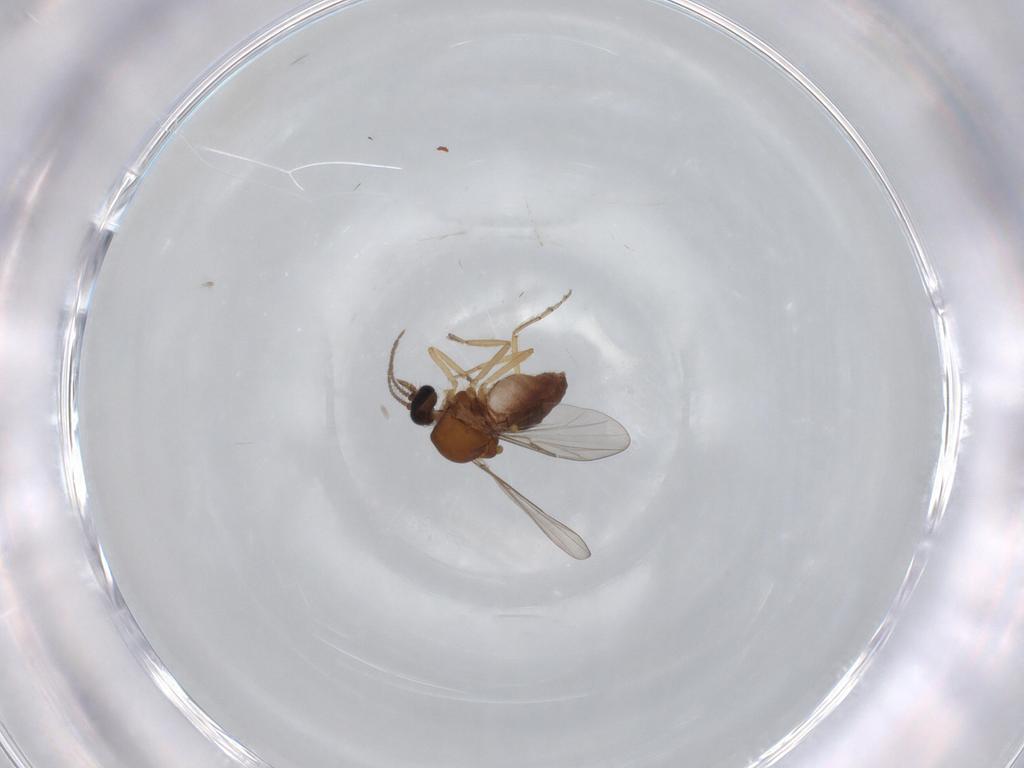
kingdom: Animalia
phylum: Arthropoda
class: Insecta
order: Diptera
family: Ceratopogonidae
